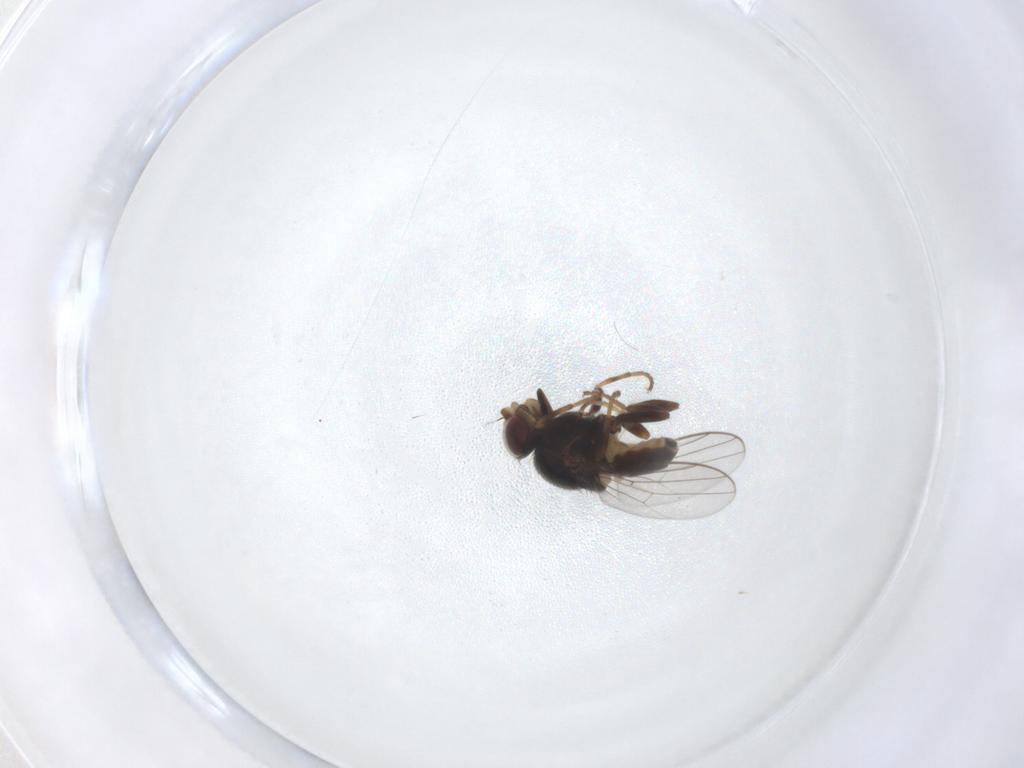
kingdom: Animalia
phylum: Arthropoda
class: Insecta
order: Diptera
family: Chloropidae
